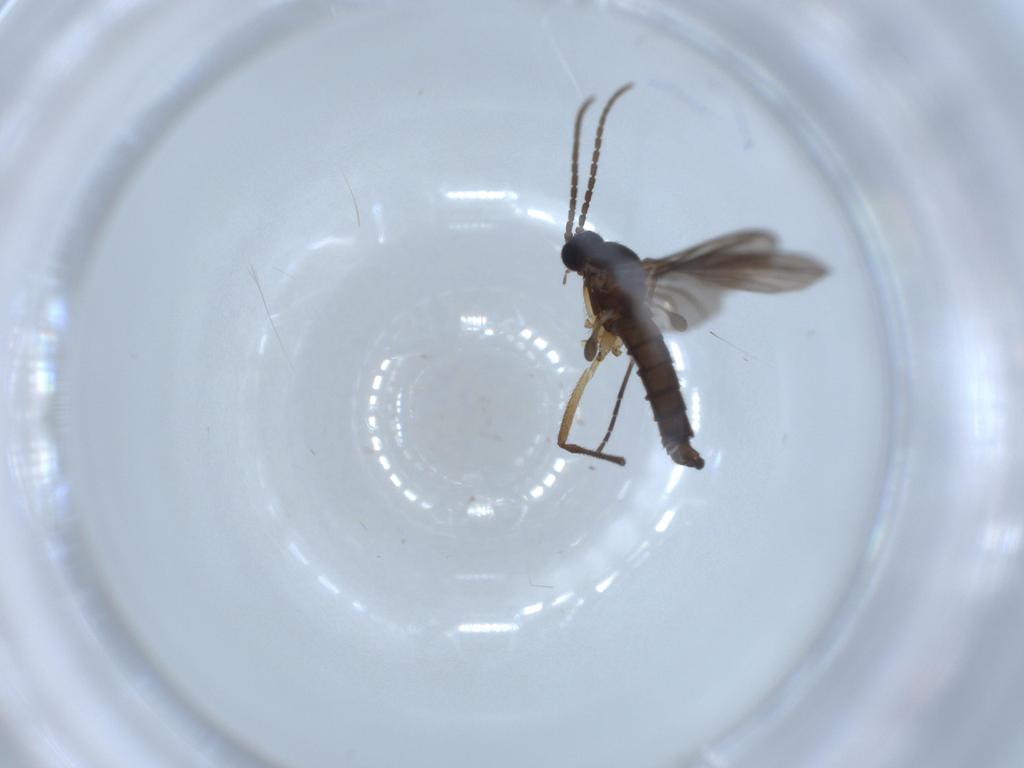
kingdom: Animalia
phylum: Arthropoda
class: Insecta
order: Diptera
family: Sciaridae
